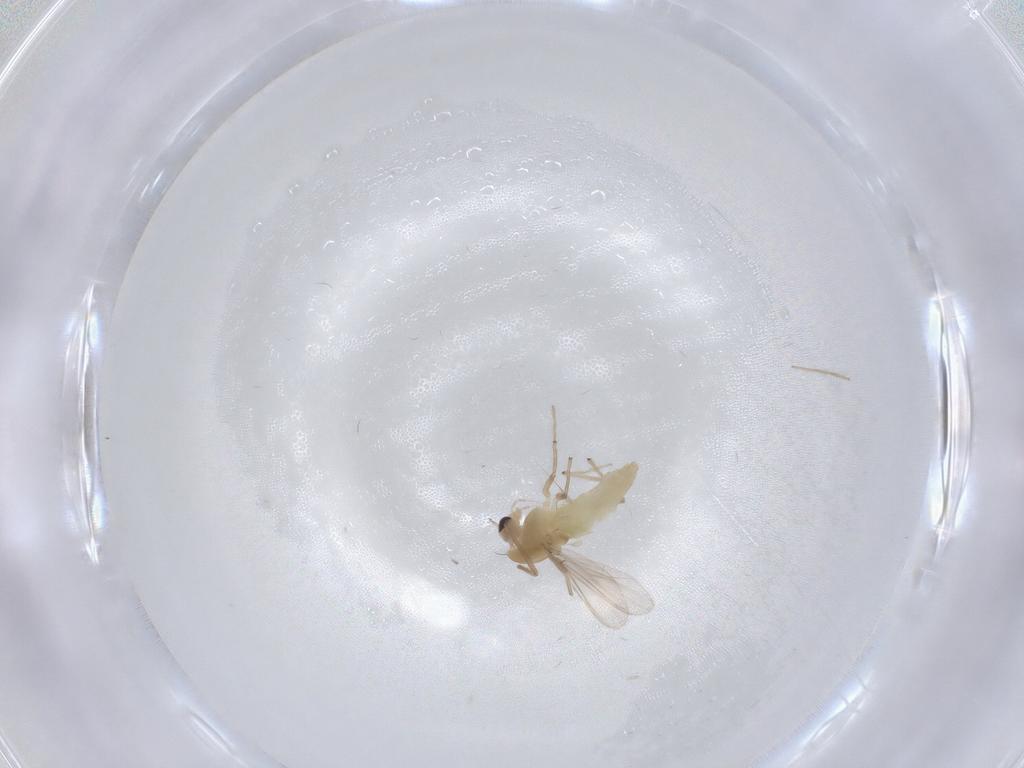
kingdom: Animalia
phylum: Arthropoda
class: Insecta
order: Diptera
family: Chironomidae
